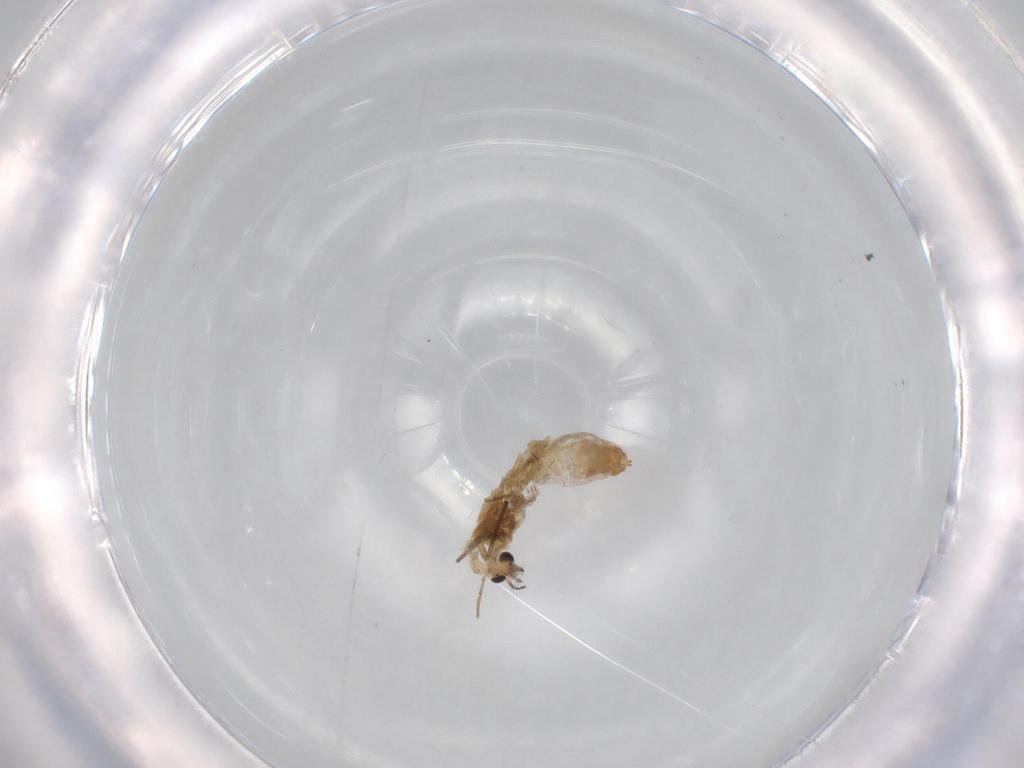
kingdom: Animalia
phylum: Arthropoda
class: Insecta
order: Diptera
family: Chironomidae
